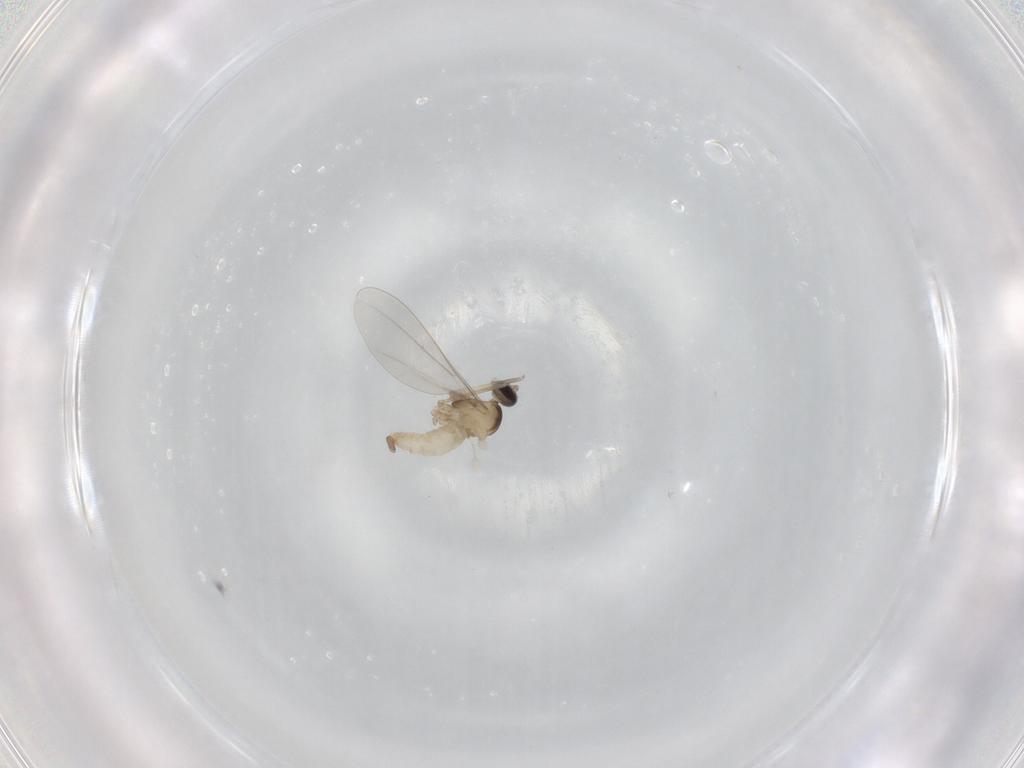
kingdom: Animalia
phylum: Arthropoda
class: Insecta
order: Diptera
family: Cecidomyiidae
